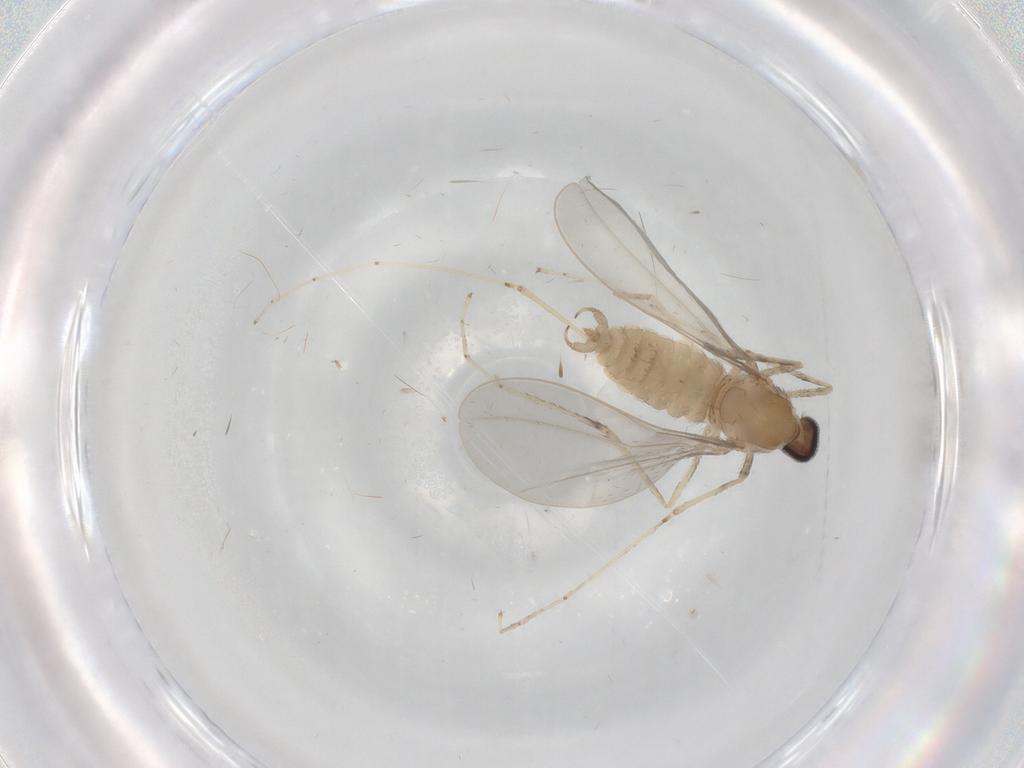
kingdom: Animalia
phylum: Arthropoda
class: Insecta
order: Diptera
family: Cecidomyiidae
